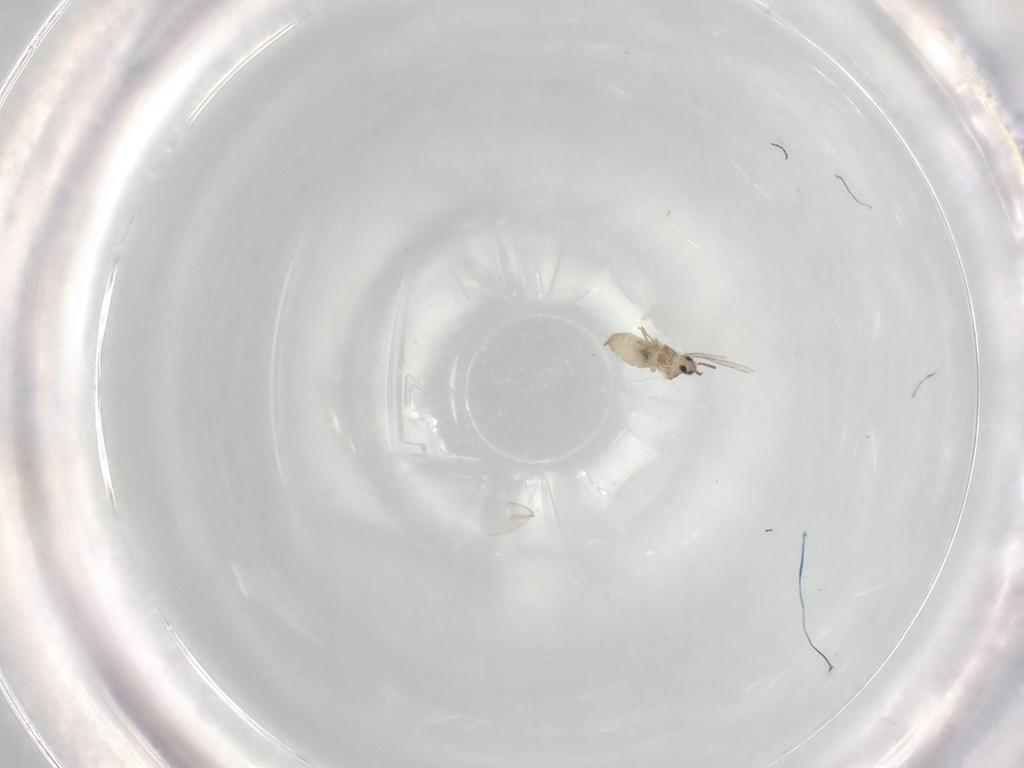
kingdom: Animalia
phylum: Arthropoda
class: Insecta
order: Diptera
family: Cecidomyiidae
